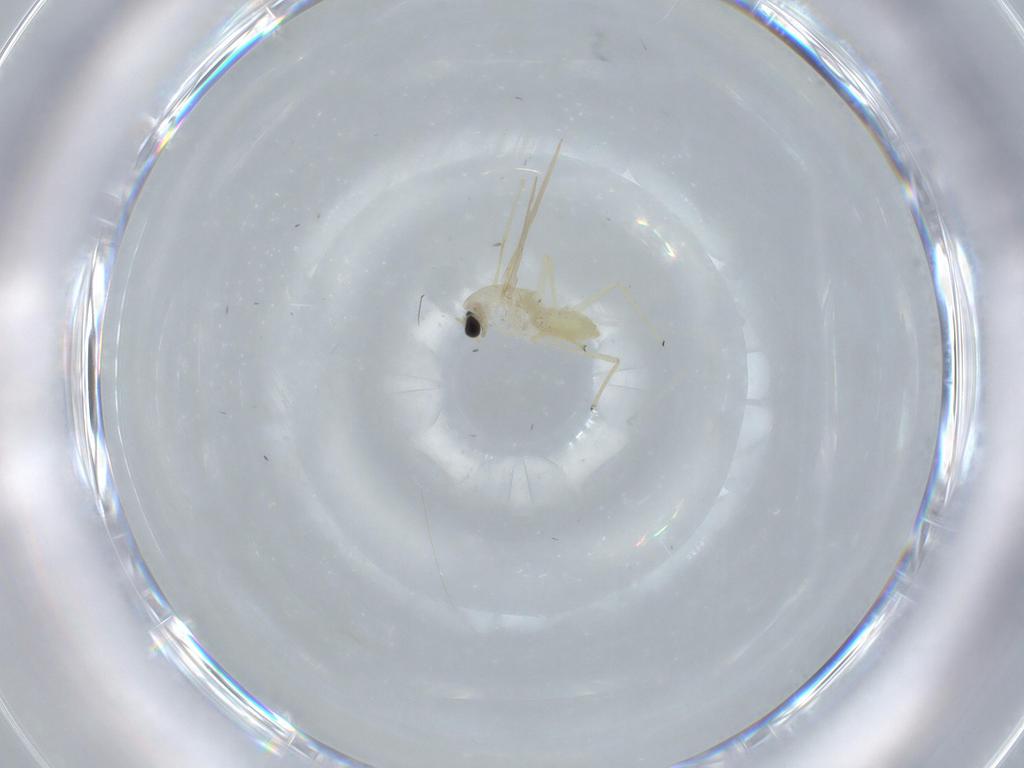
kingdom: Animalia
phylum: Arthropoda
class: Insecta
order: Diptera
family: Chironomidae
